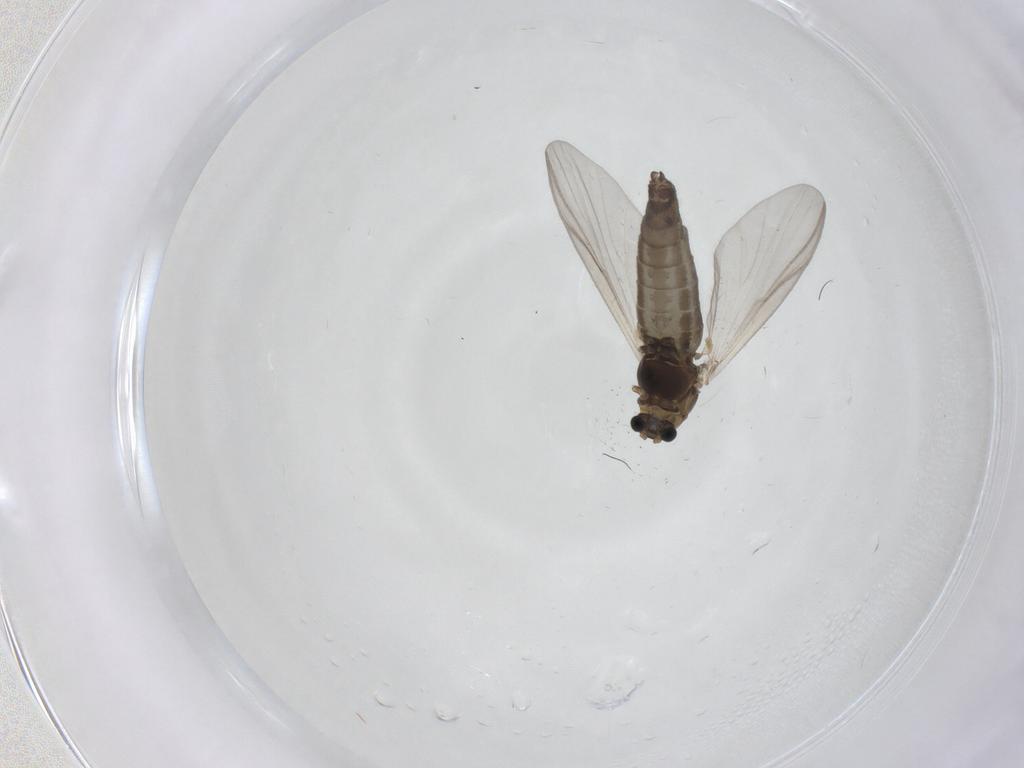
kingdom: Animalia
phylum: Arthropoda
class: Insecta
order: Diptera
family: Chironomidae
